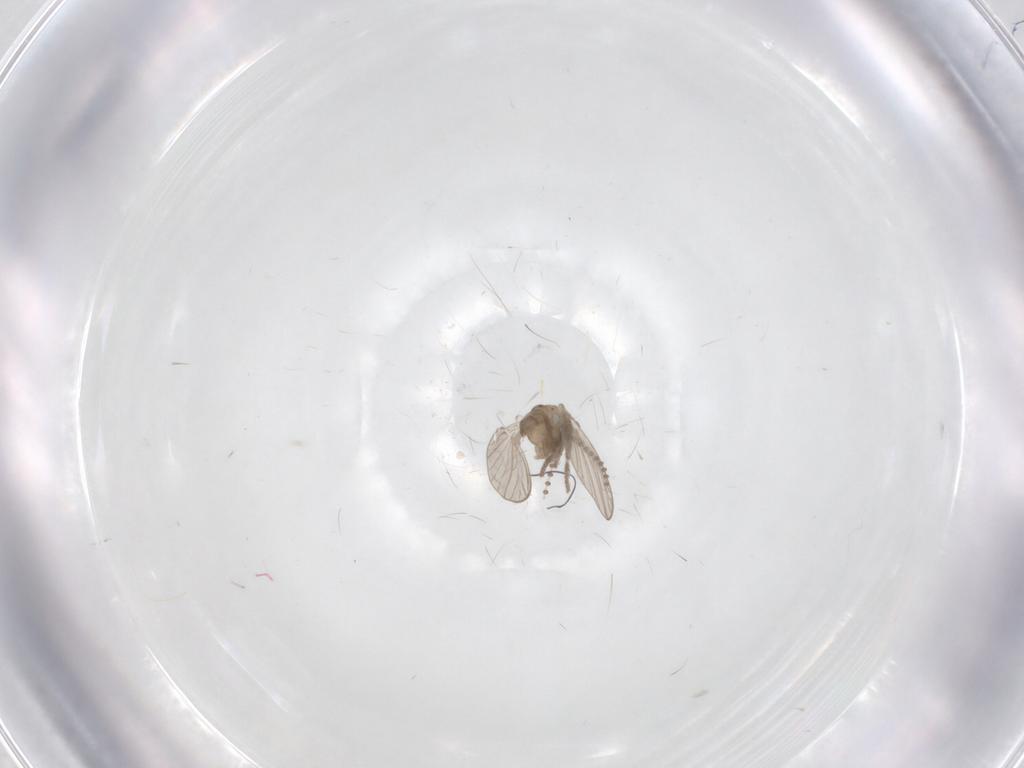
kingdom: Animalia
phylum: Arthropoda
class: Insecta
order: Diptera
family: Psychodidae
